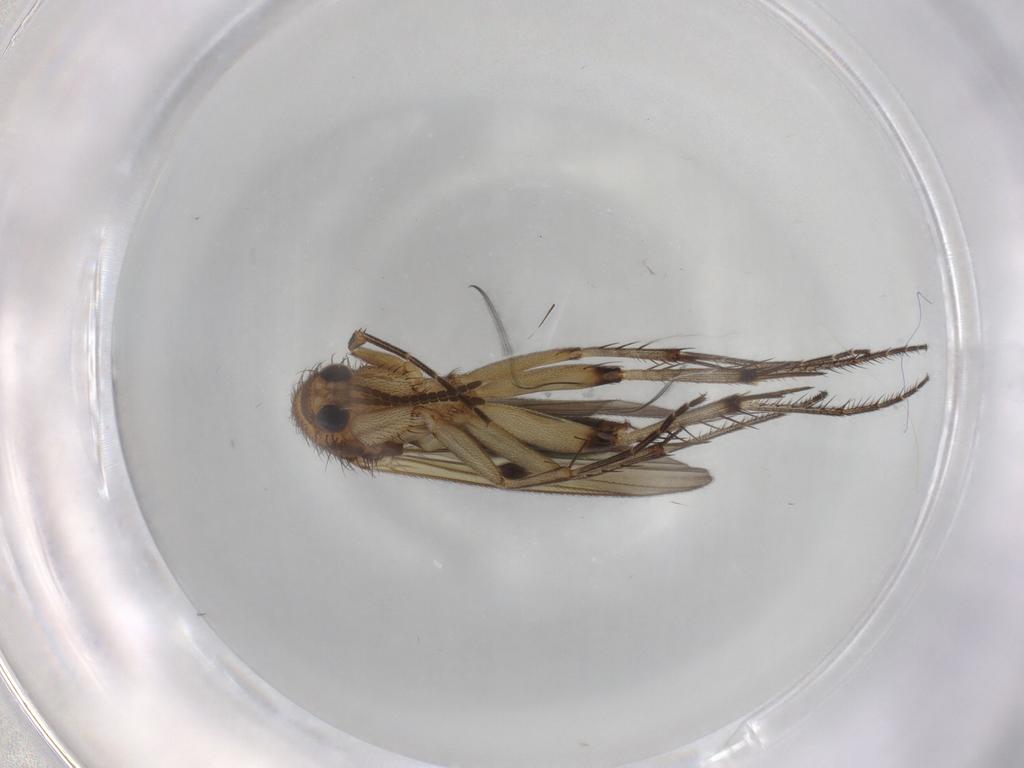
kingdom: Animalia
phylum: Arthropoda
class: Insecta
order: Diptera
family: Mycetophilidae
